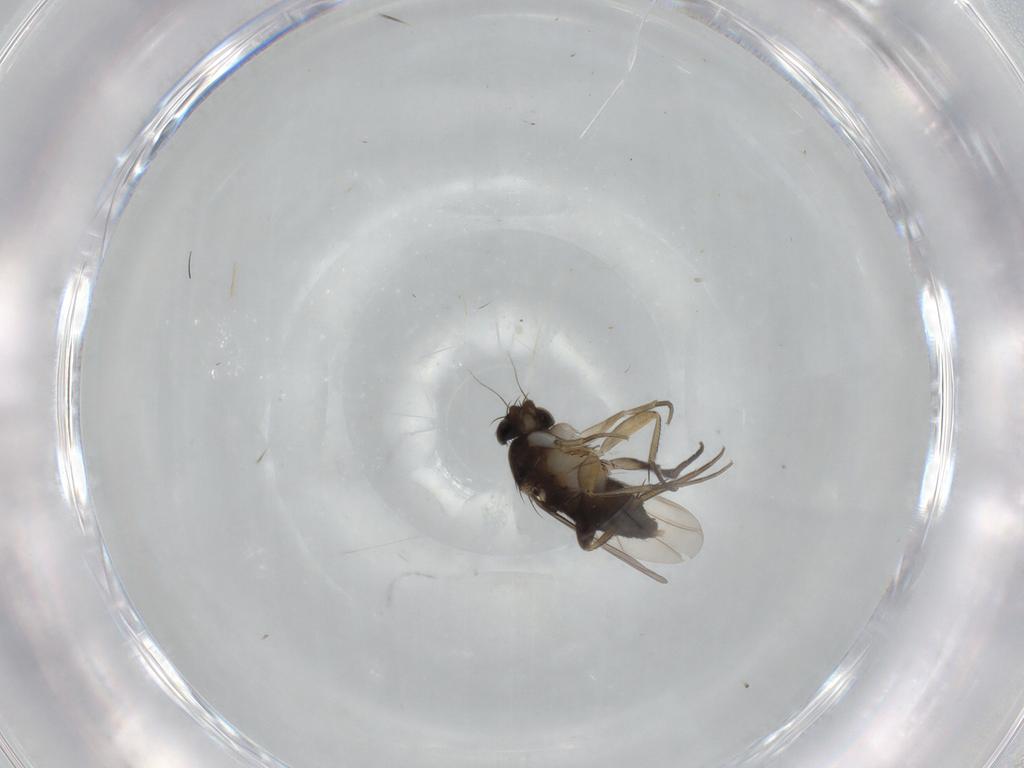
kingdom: Animalia
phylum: Arthropoda
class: Insecta
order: Diptera
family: Phoridae
